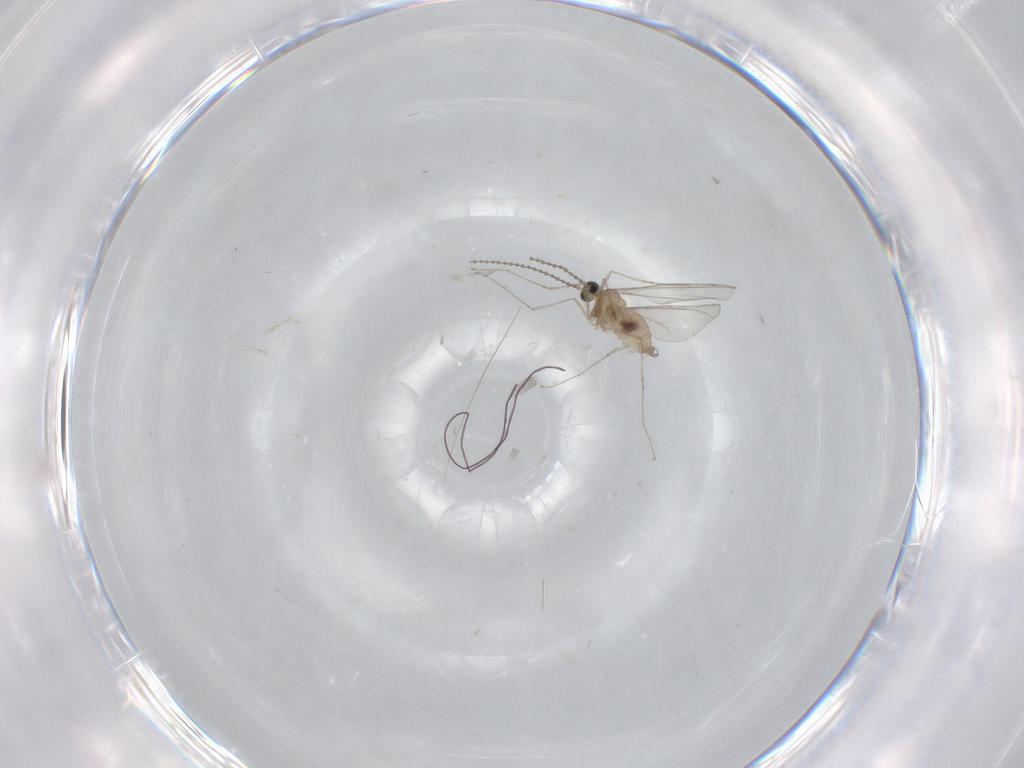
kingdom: Animalia
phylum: Arthropoda
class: Insecta
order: Diptera
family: Cecidomyiidae
